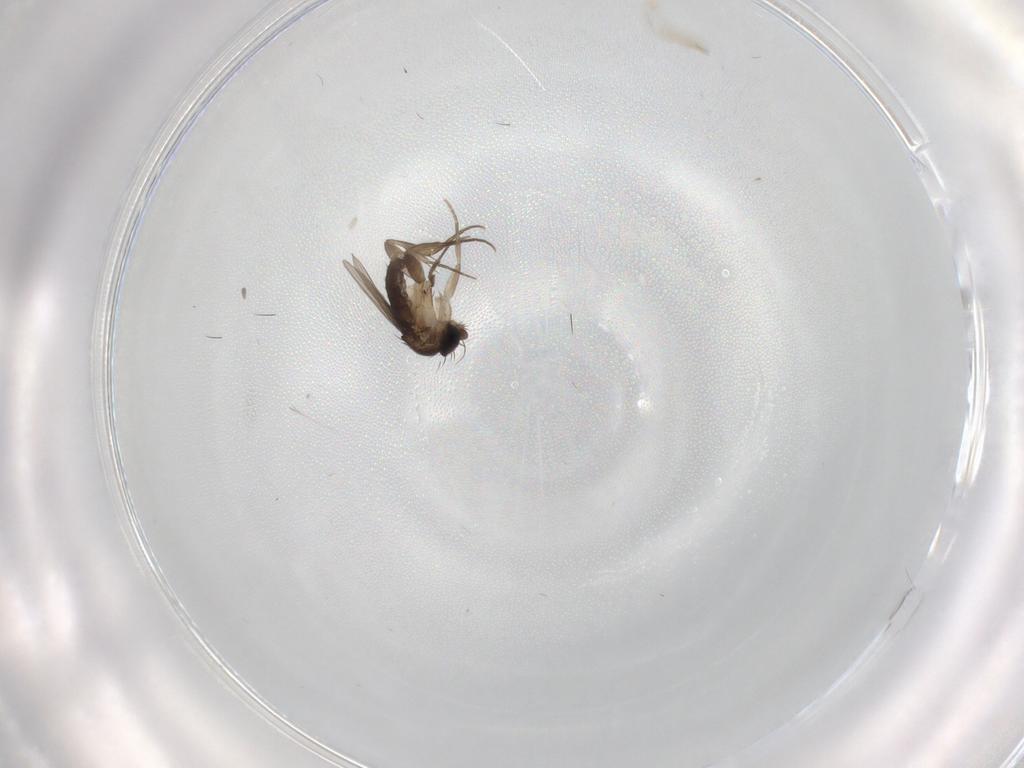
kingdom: Animalia
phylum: Arthropoda
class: Insecta
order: Diptera
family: Phoridae
